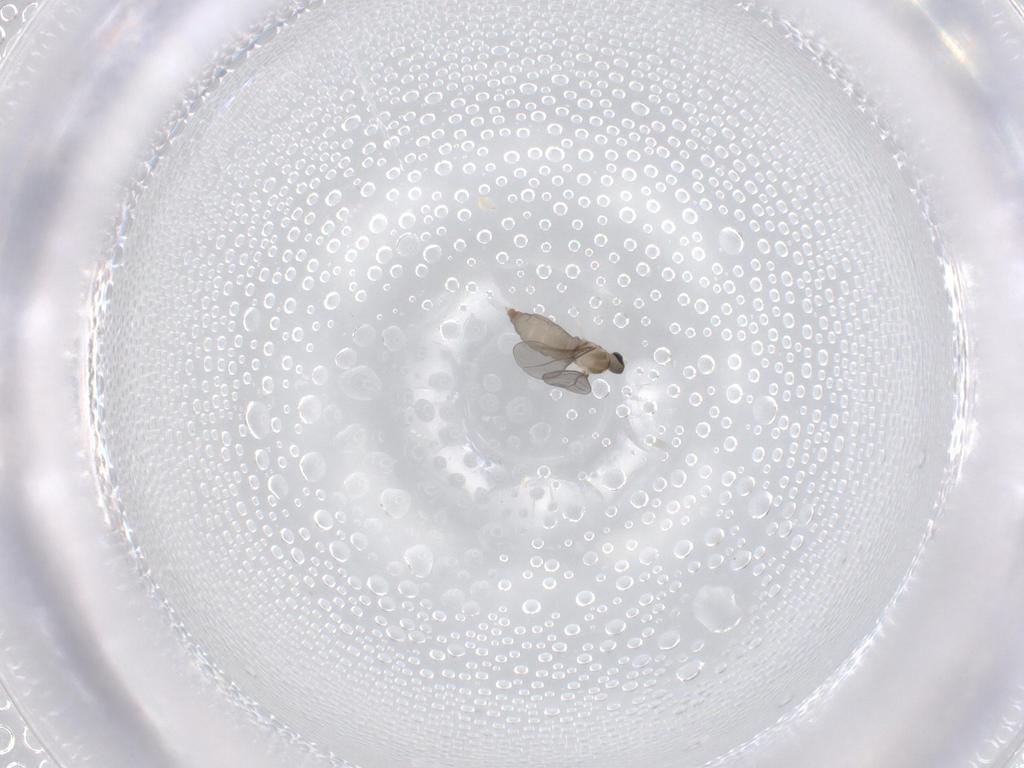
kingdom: Animalia
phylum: Arthropoda
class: Insecta
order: Diptera
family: Cecidomyiidae
